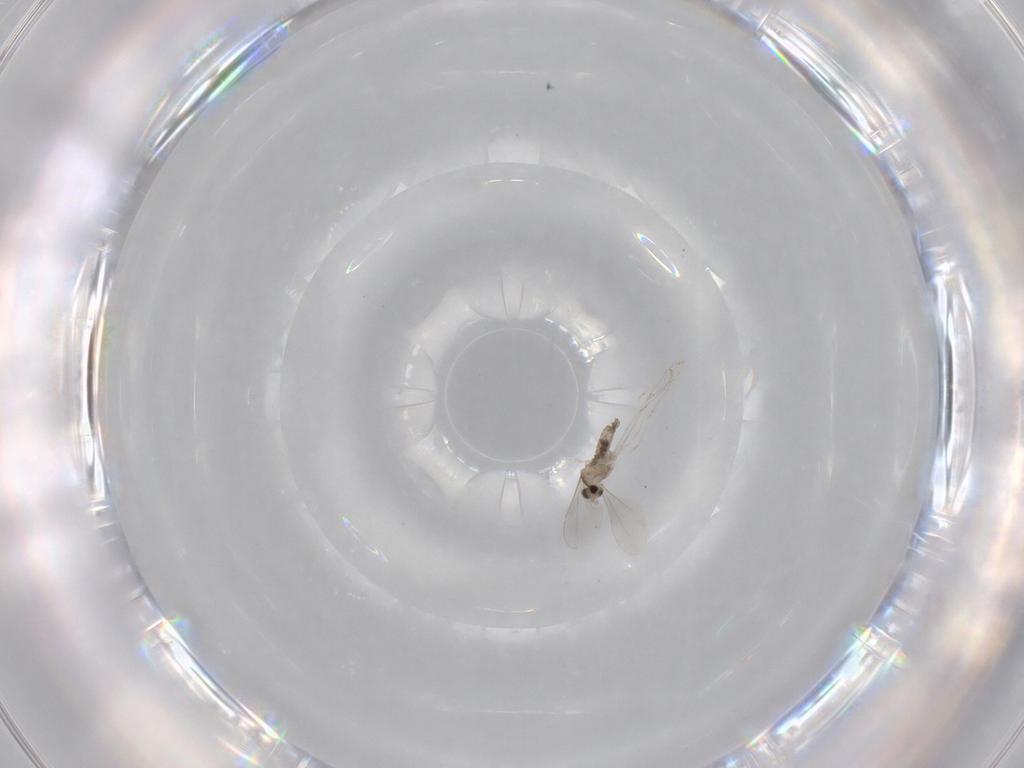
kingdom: Animalia
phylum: Arthropoda
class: Insecta
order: Diptera
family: Cecidomyiidae
